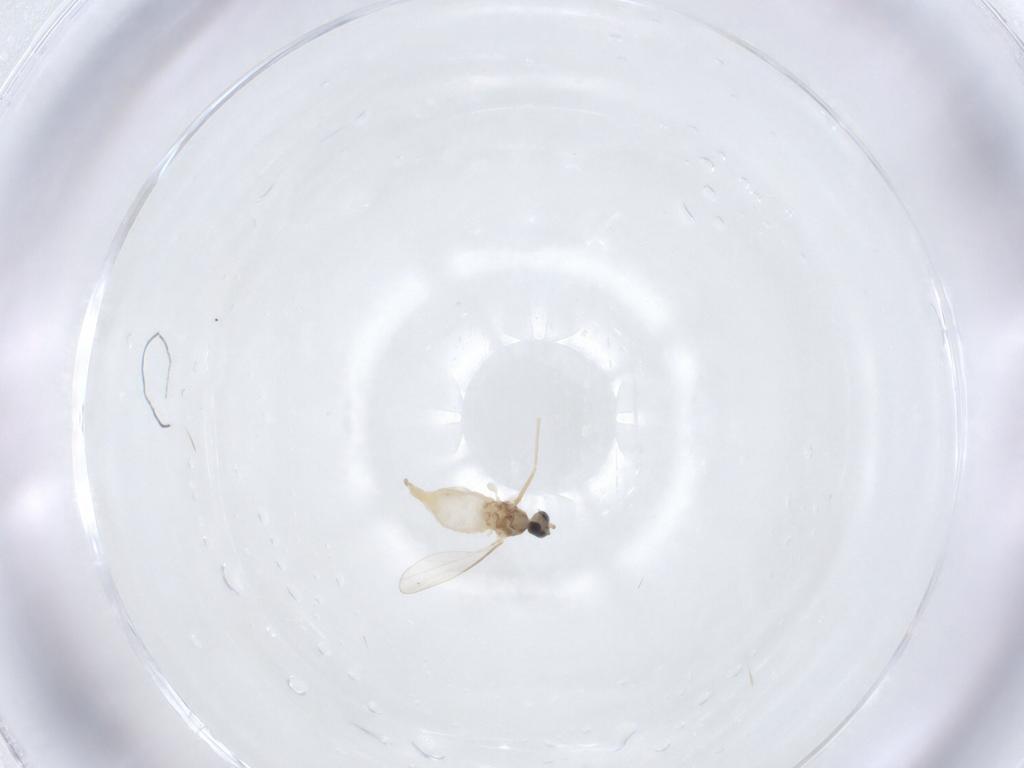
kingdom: Animalia
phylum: Arthropoda
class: Insecta
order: Diptera
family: Cecidomyiidae
